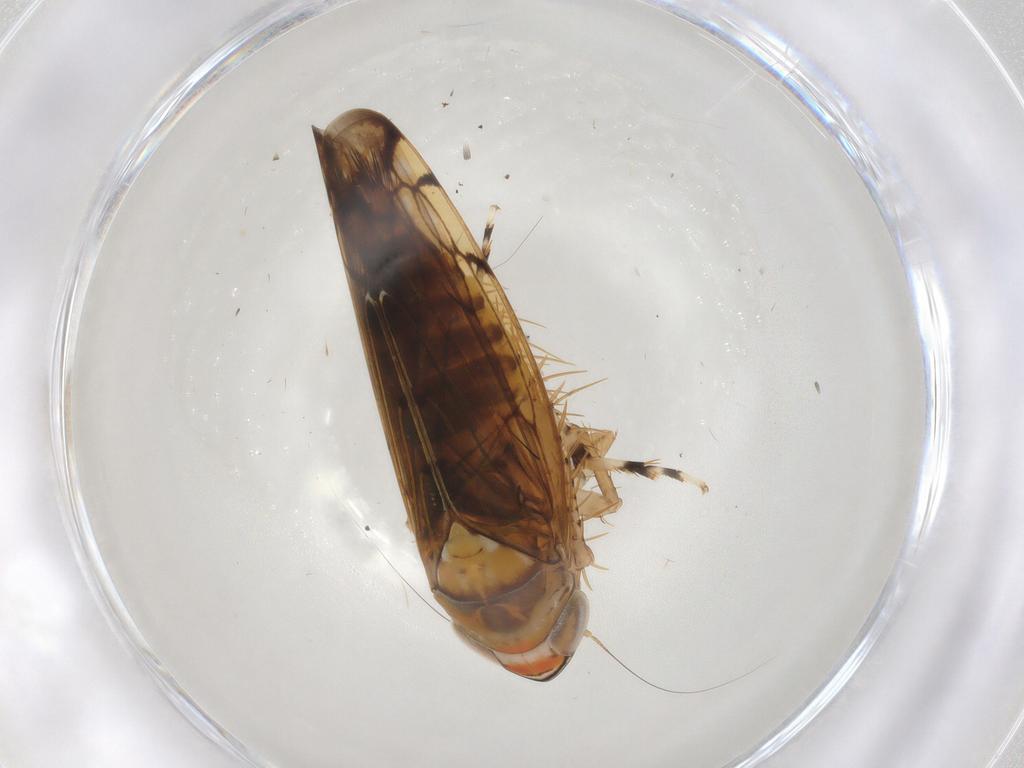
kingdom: Animalia
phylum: Arthropoda
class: Insecta
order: Hemiptera
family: Cicadellidae
